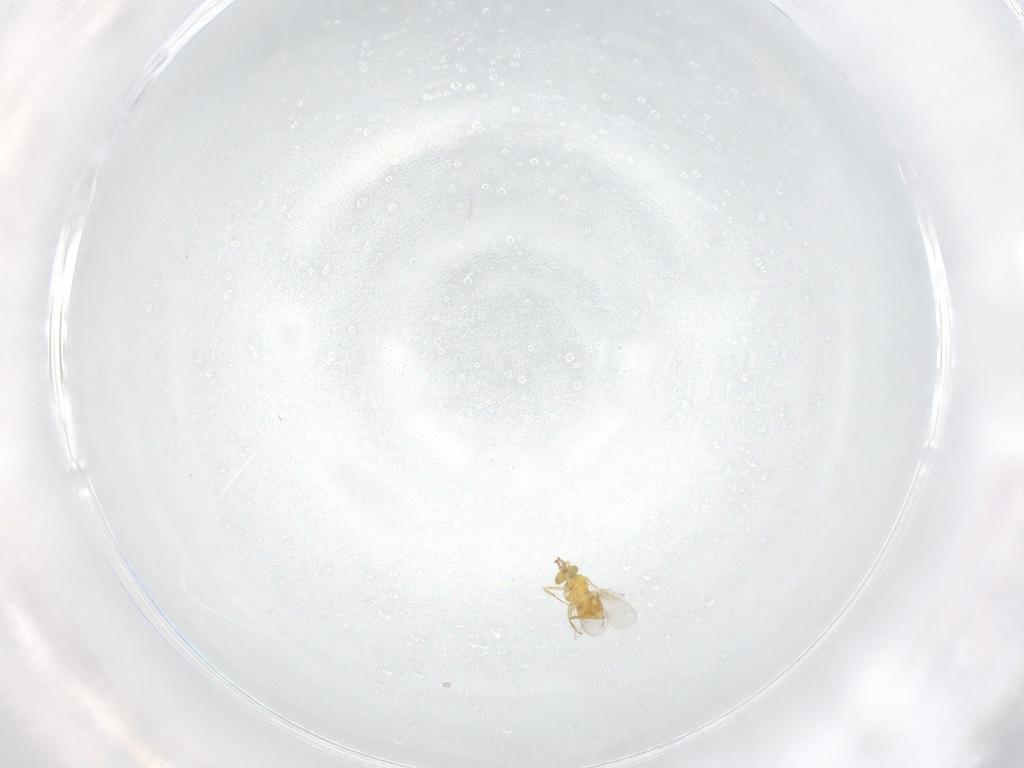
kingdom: Animalia
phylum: Arthropoda
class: Insecta
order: Hymenoptera
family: Aphelinidae
